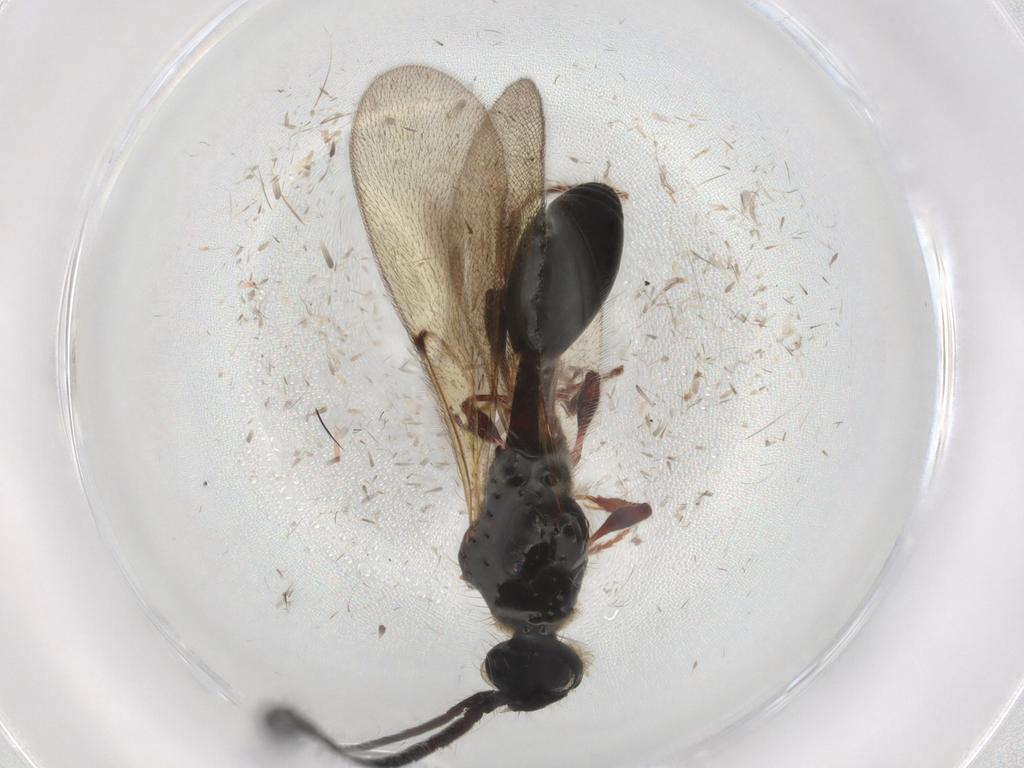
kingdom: Animalia
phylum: Arthropoda
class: Insecta
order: Hymenoptera
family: Diapriidae
